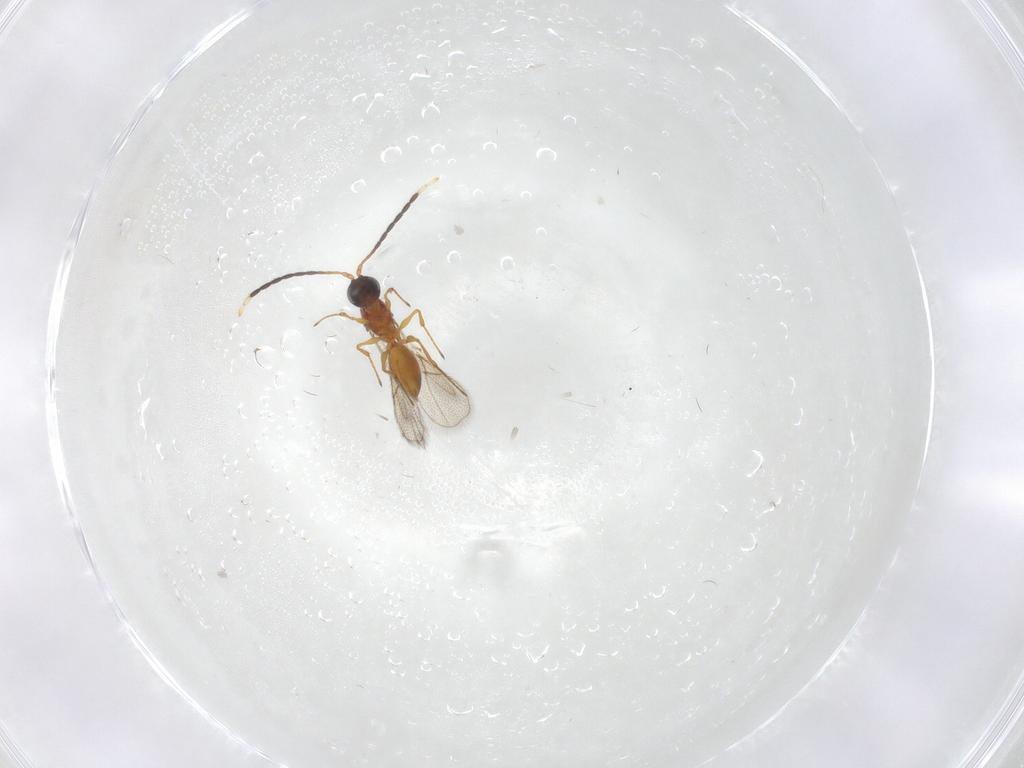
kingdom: Animalia
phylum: Arthropoda
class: Insecta
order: Hymenoptera
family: Figitidae
